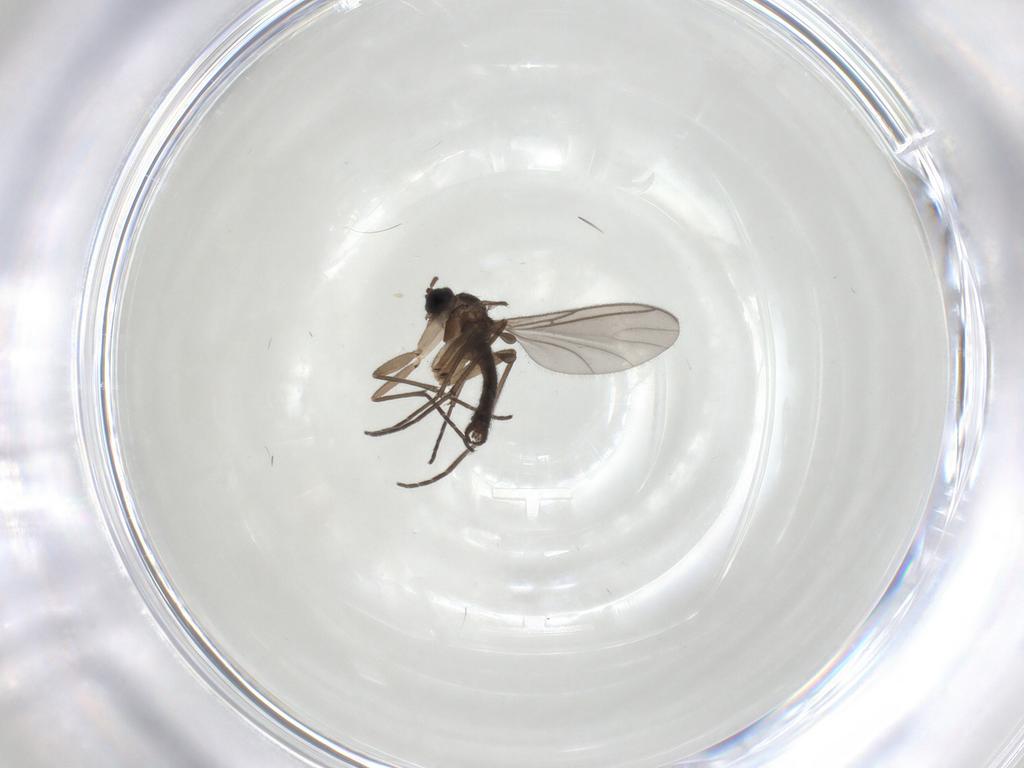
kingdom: Animalia
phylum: Arthropoda
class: Insecta
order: Diptera
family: Sciaridae
